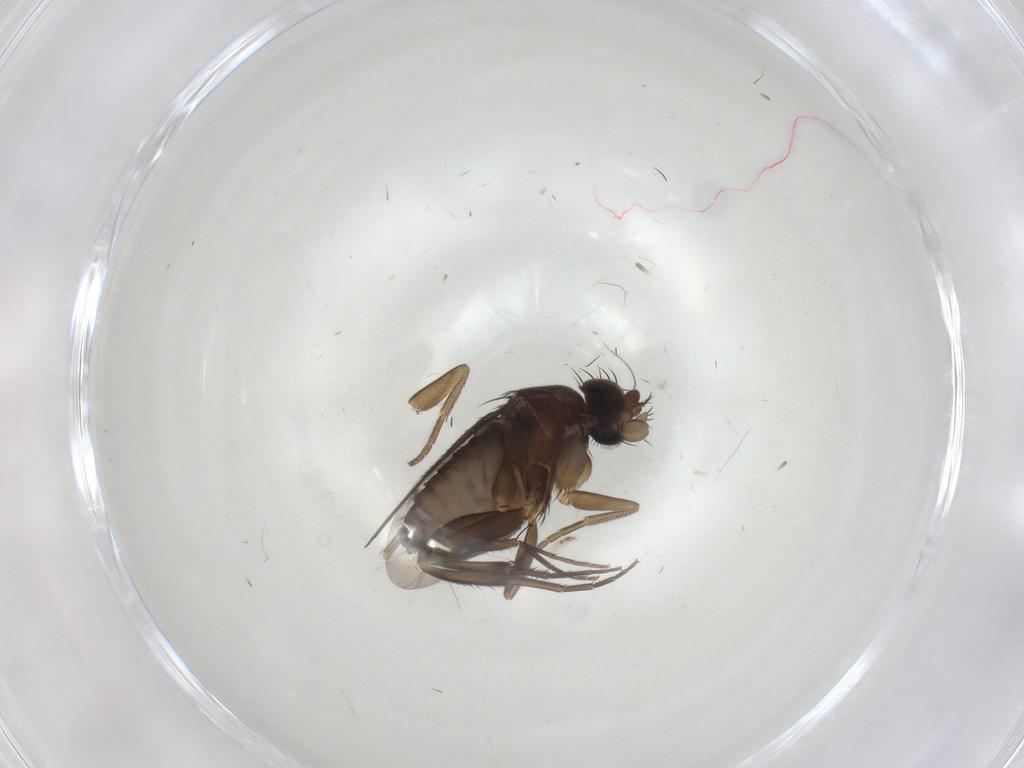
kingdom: Animalia
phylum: Arthropoda
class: Insecta
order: Diptera
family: Phoridae
